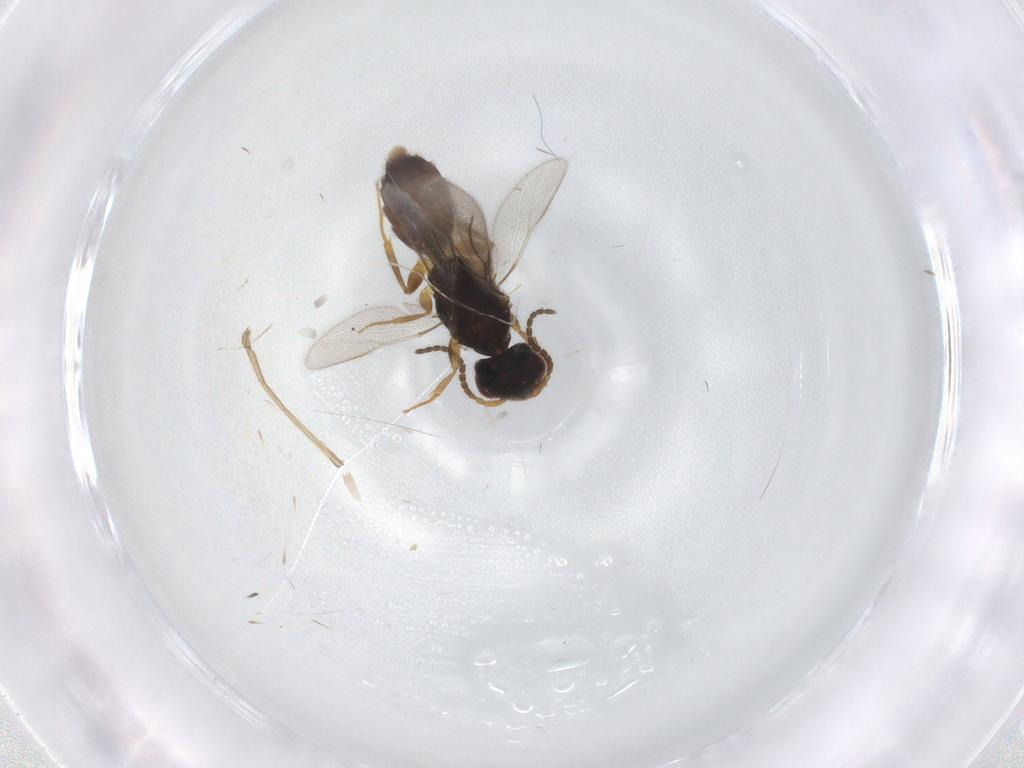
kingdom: Animalia
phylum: Arthropoda
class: Insecta
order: Hymenoptera
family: Bethylidae
